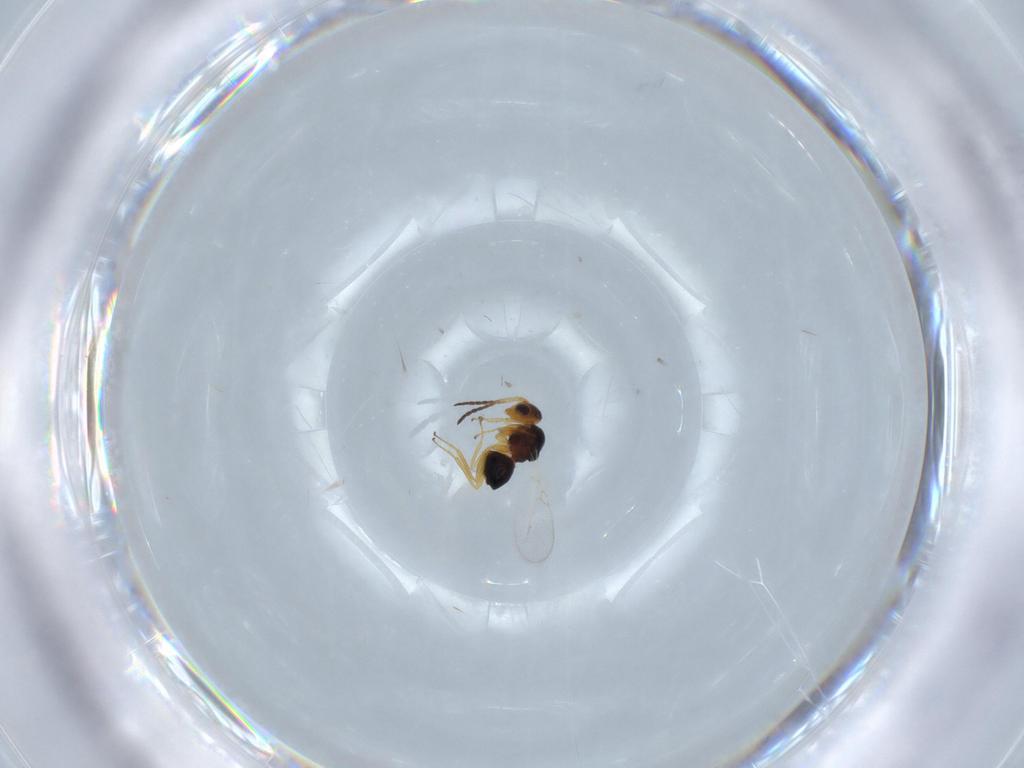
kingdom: Animalia
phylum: Arthropoda
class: Insecta
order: Hymenoptera
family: Figitidae
